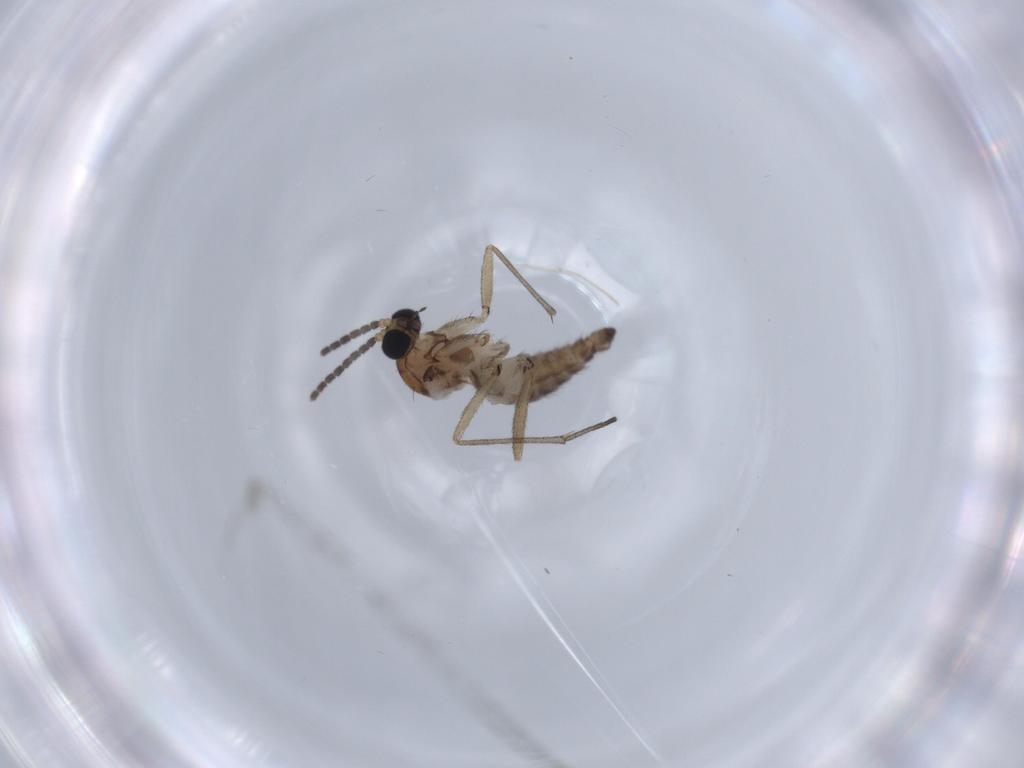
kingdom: Animalia
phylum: Arthropoda
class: Insecta
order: Diptera
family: Sciaridae
